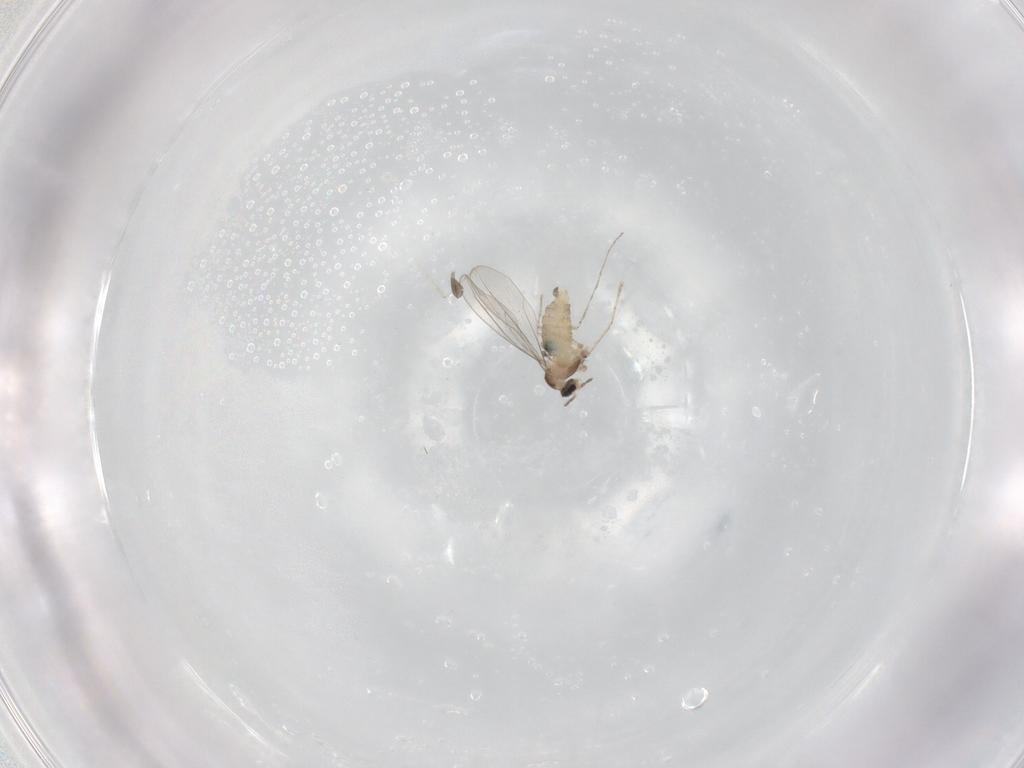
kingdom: Animalia
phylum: Arthropoda
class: Insecta
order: Diptera
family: Cecidomyiidae
